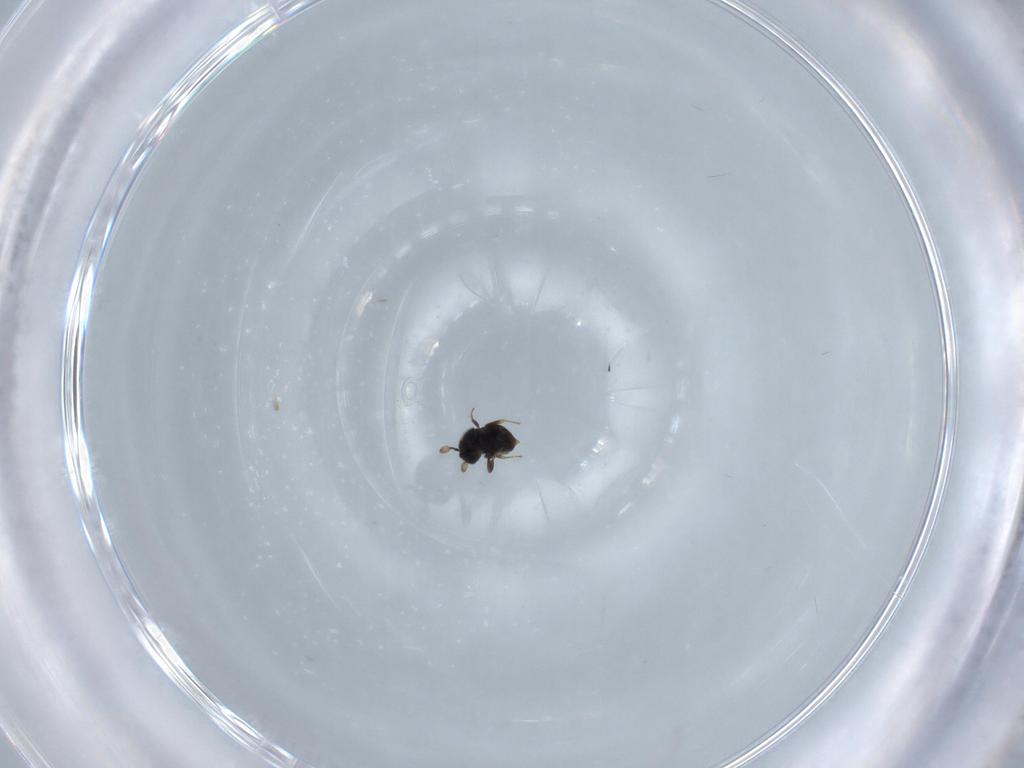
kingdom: Animalia
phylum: Arthropoda
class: Insecta
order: Hymenoptera
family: Scelionidae
